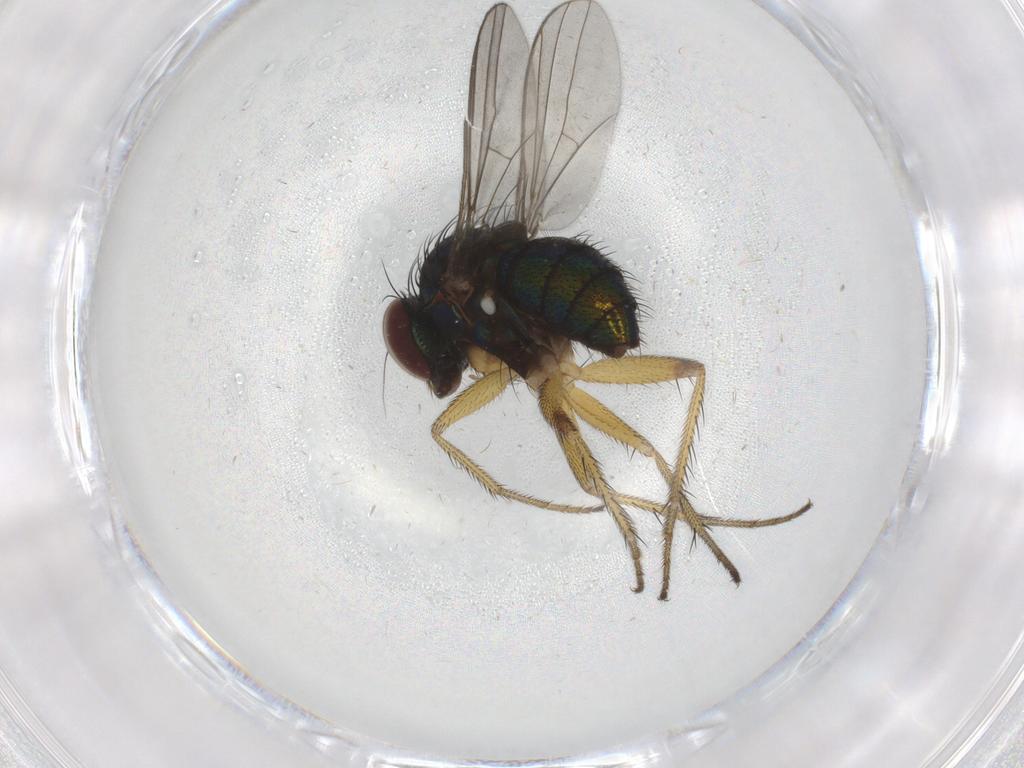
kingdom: Animalia
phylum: Arthropoda
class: Insecta
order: Diptera
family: Dolichopodidae
